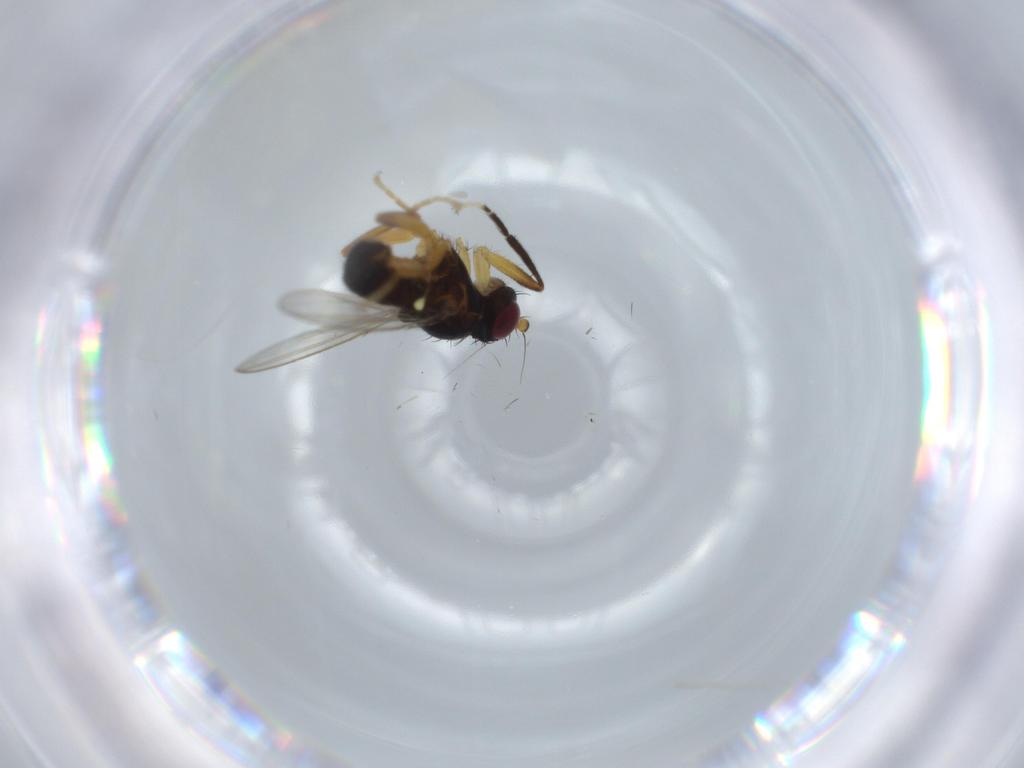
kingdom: Animalia
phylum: Arthropoda
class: Insecta
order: Diptera
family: Cypselosomatidae
